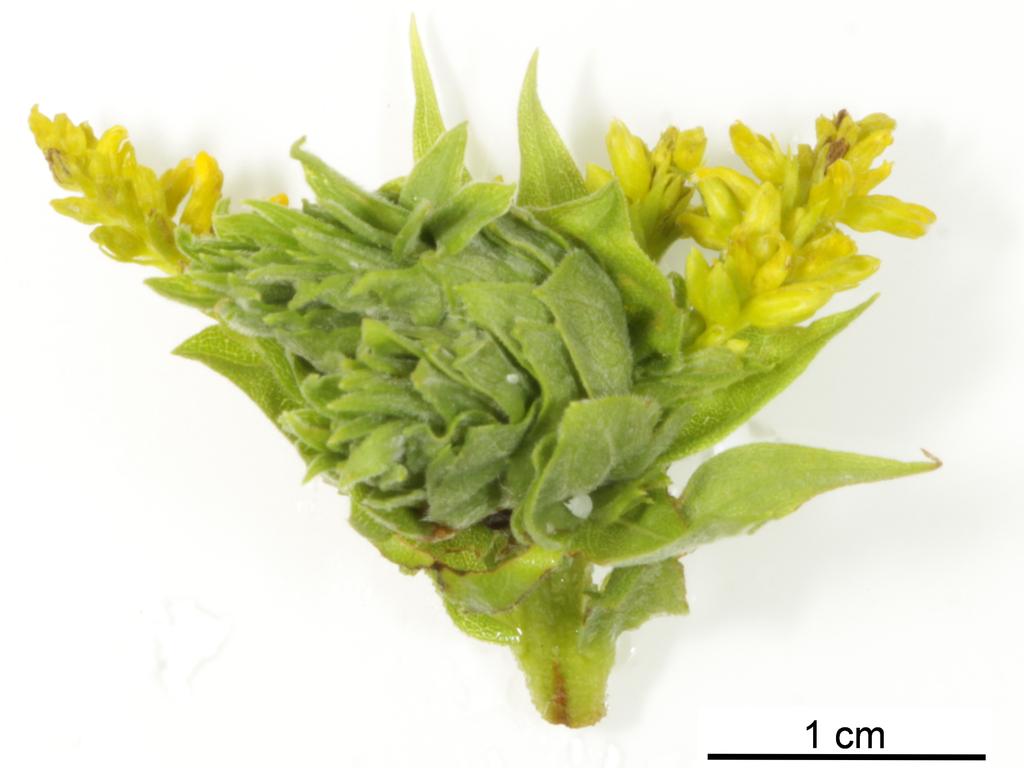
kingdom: Animalia
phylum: Arthropoda
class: Insecta
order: Hymenoptera
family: Torymidae
